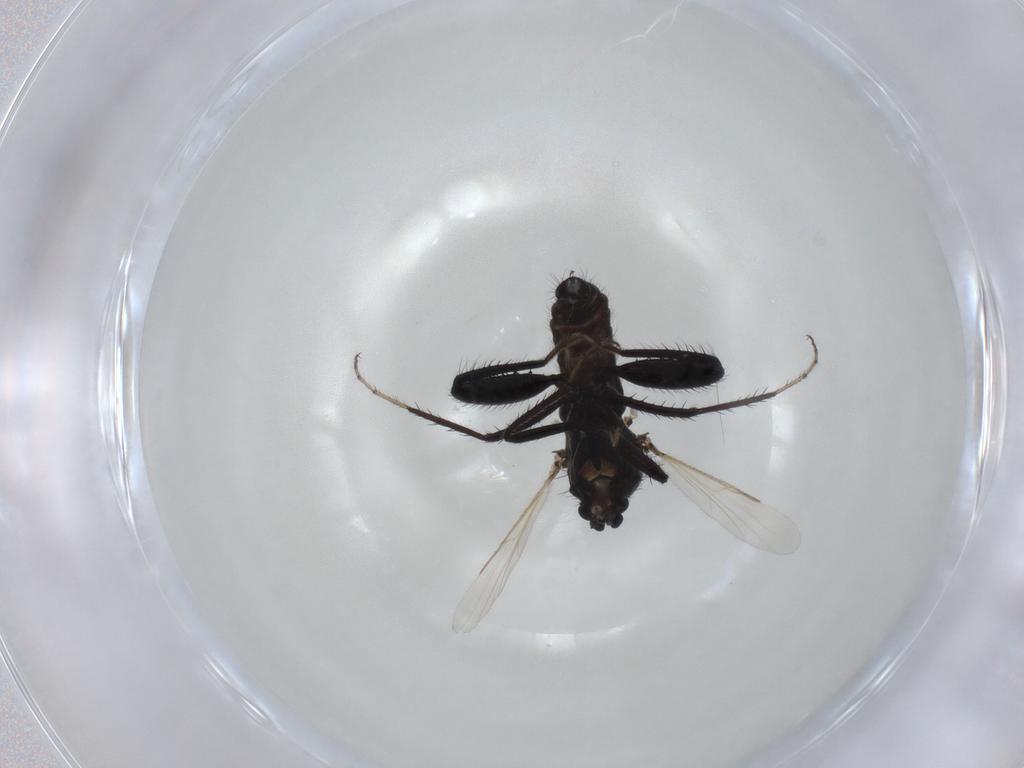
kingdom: Animalia
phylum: Arthropoda
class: Insecta
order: Diptera
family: Ceratopogonidae
